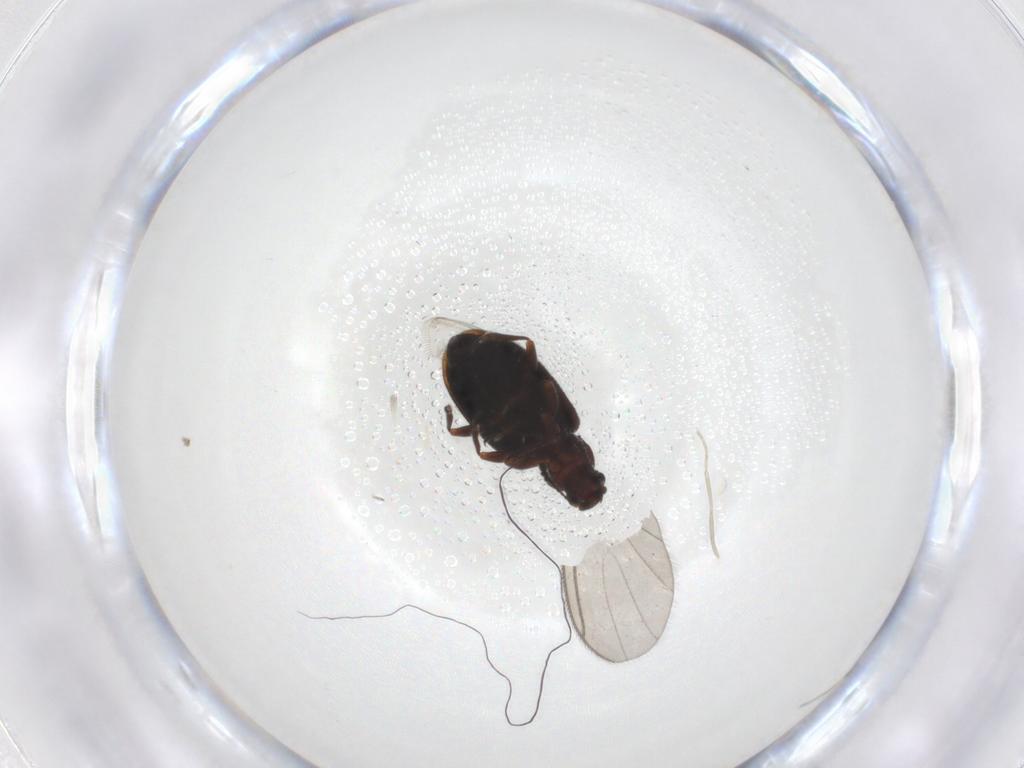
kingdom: Animalia
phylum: Arthropoda
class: Insecta
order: Coleoptera
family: Latridiidae
